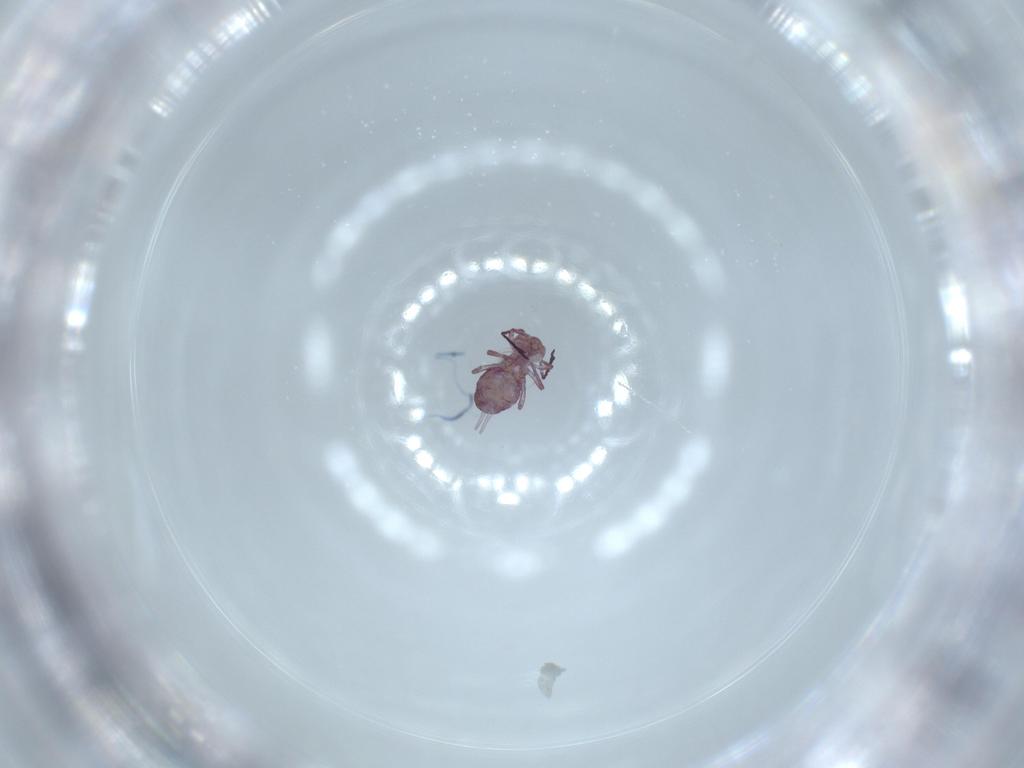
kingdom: Animalia
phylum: Arthropoda
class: Collembola
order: Symphypleona
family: Dicyrtomidae
